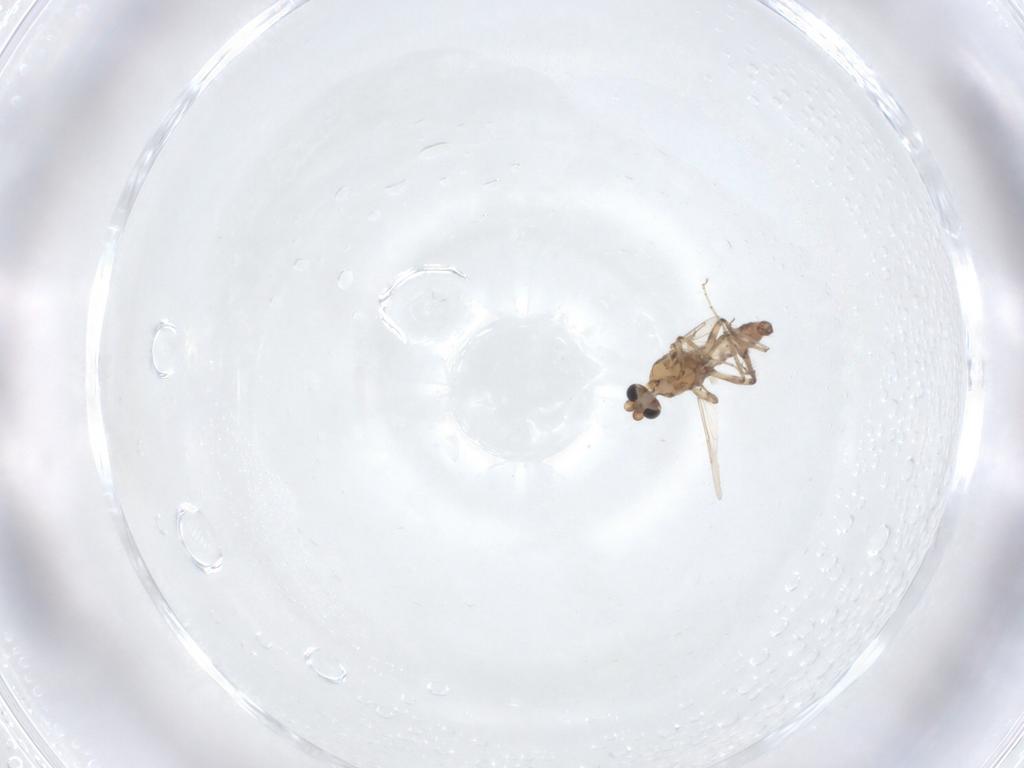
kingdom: Animalia
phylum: Arthropoda
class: Insecta
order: Diptera
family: Ceratopogonidae
